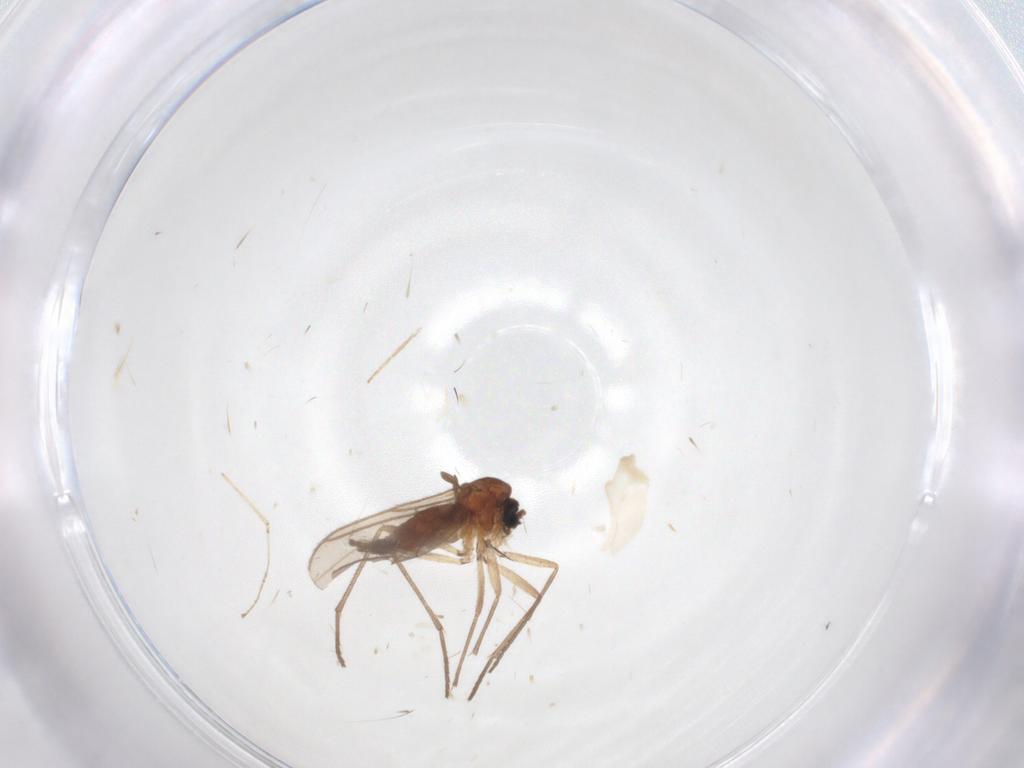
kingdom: Animalia
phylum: Arthropoda
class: Insecta
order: Diptera
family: Sciaridae
